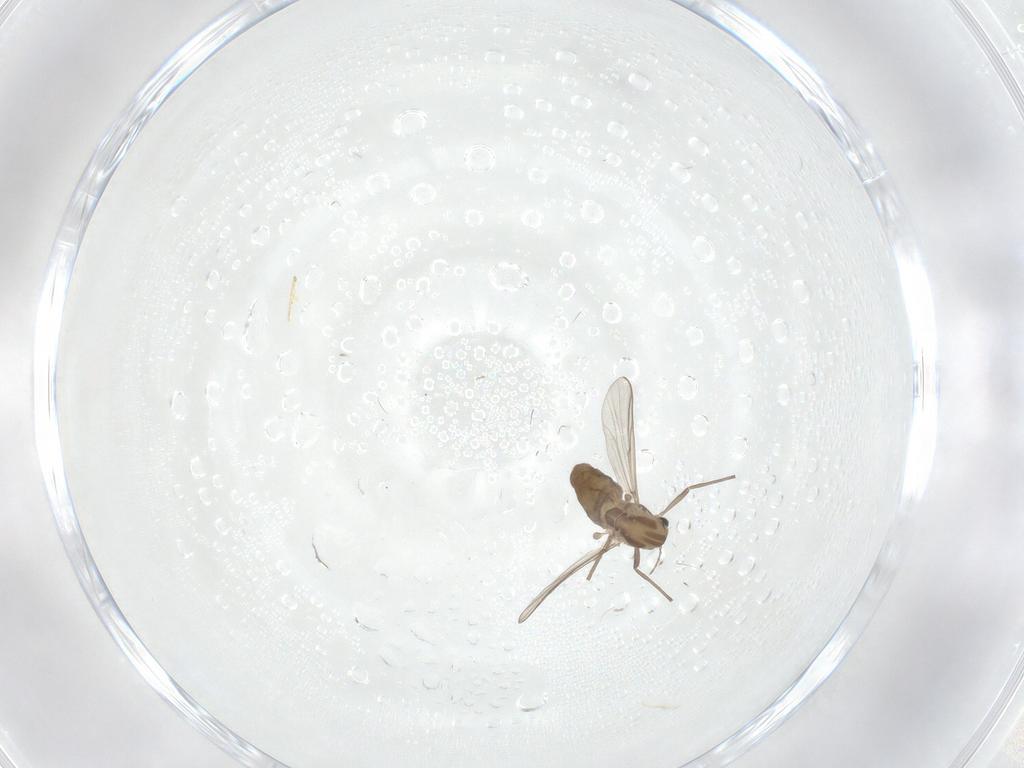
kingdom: Animalia
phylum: Arthropoda
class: Insecta
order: Diptera
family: Chironomidae
